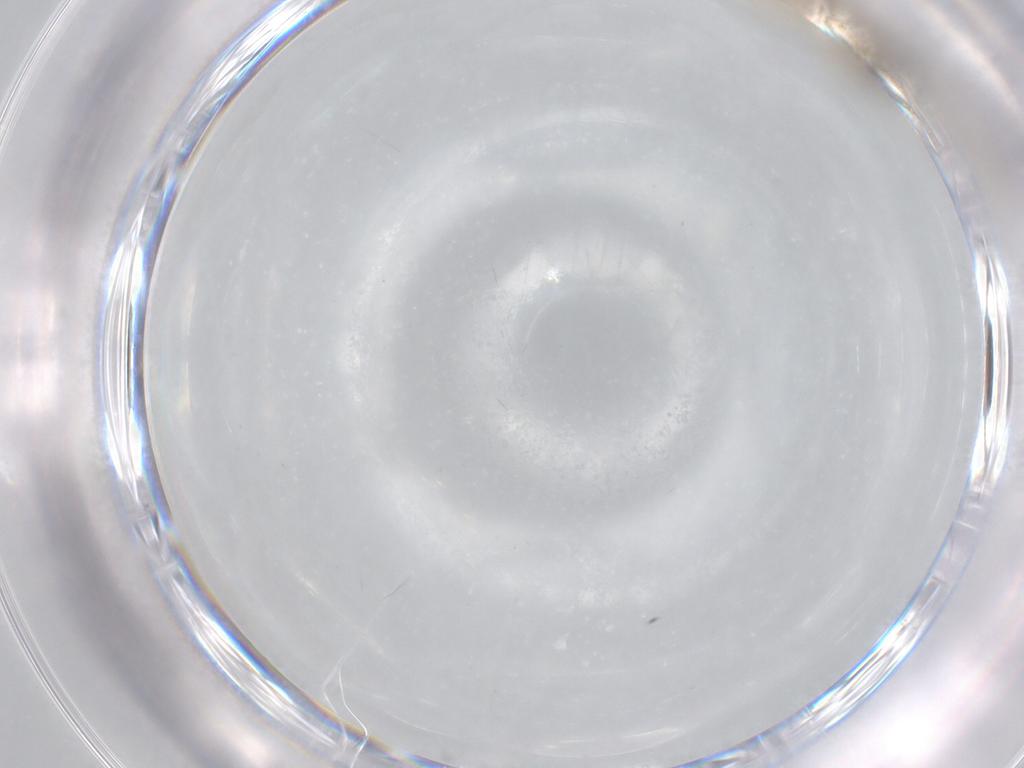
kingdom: Animalia
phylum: Arthropoda
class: Insecta
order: Diptera
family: Cecidomyiidae
